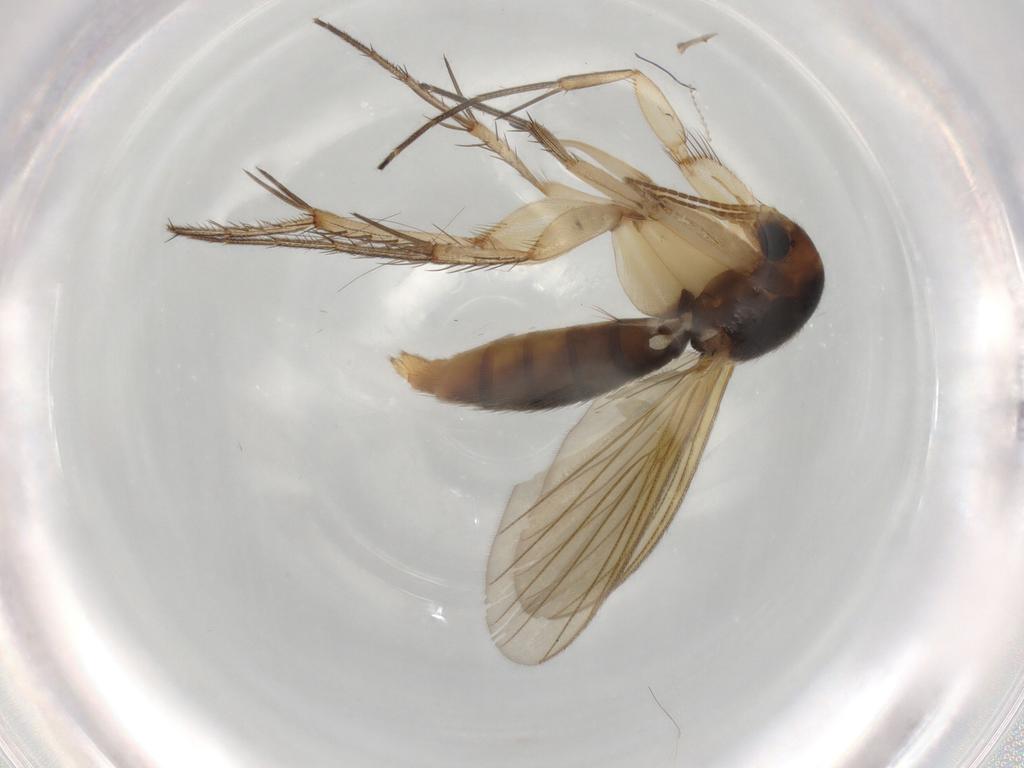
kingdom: Animalia
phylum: Arthropoda
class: Insecta
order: Diptera
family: Mycetophilidae
